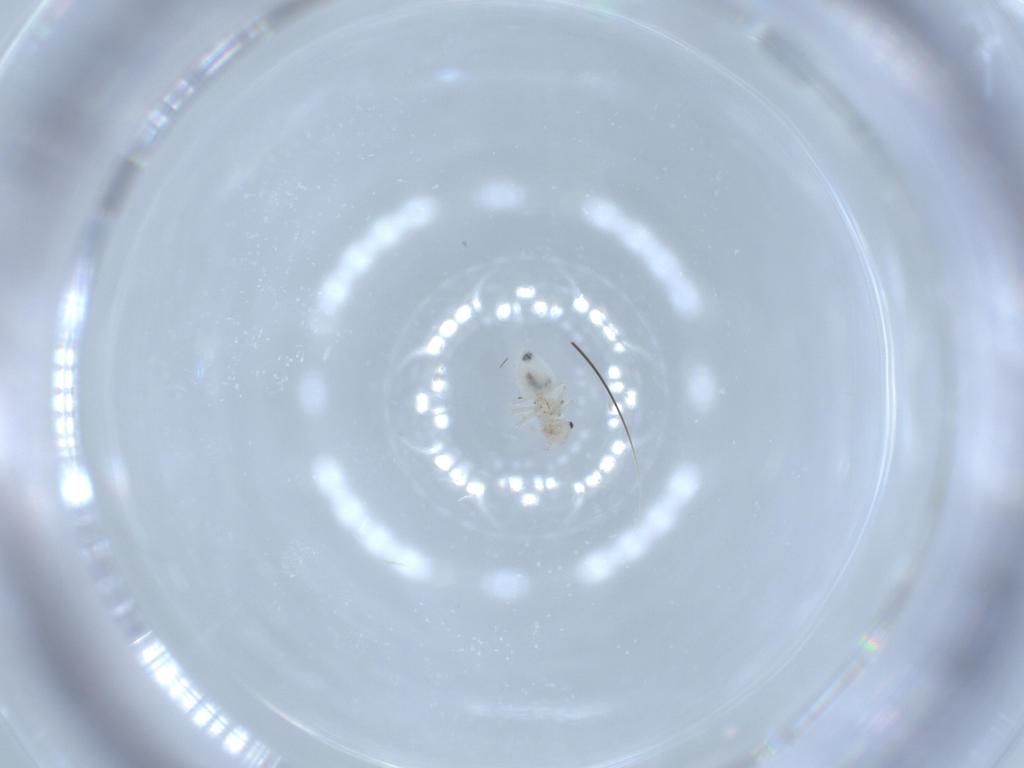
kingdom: Animalia
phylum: Arthropoda
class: Insecta
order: Psocodea
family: Amphipsocidae
